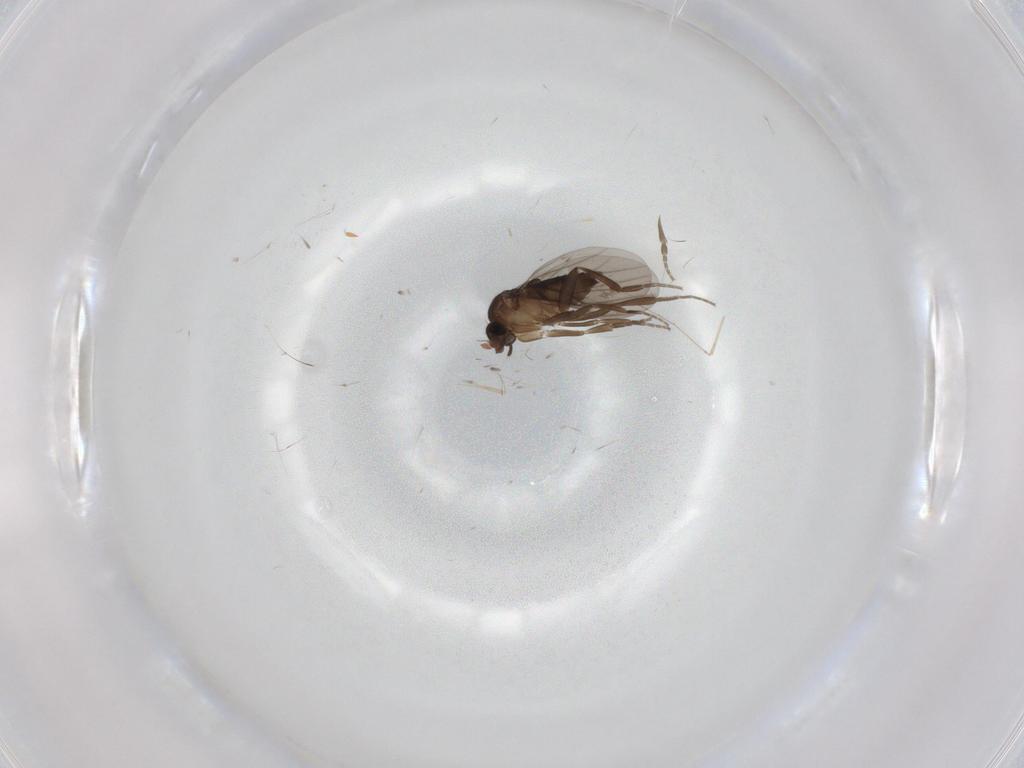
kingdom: Animalia
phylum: Arthropoda
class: Insecta
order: Diptera
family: Phoridae
